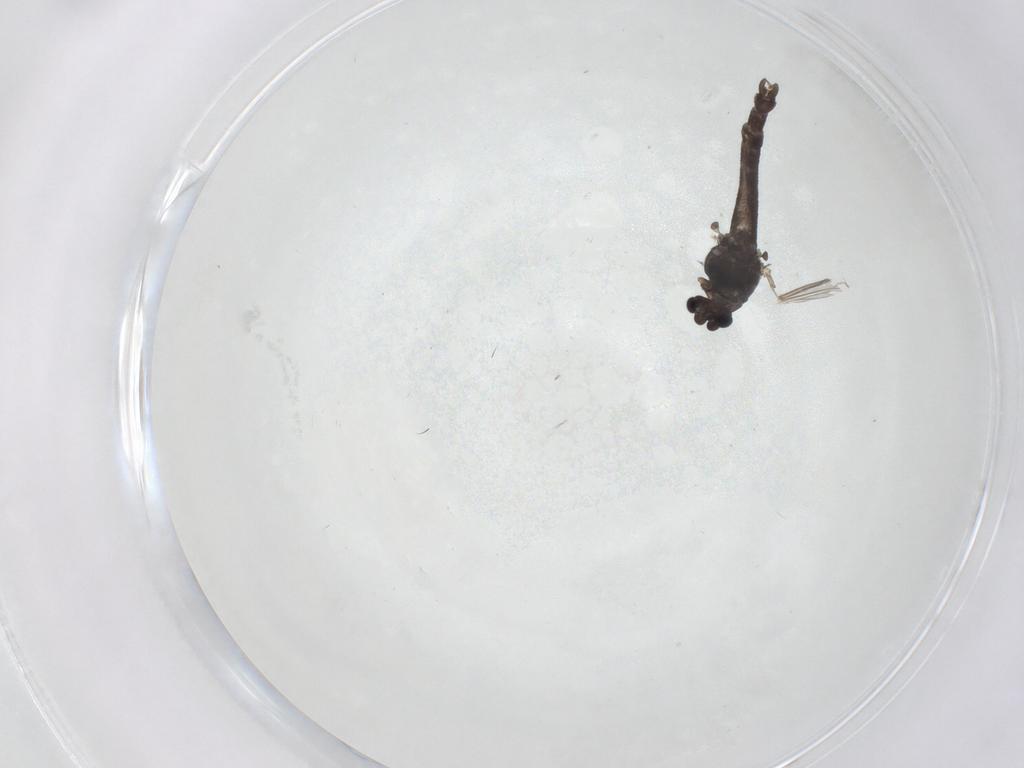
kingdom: Animalia
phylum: Arthropoda
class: Insecta
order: Diptera
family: Chironomidae
